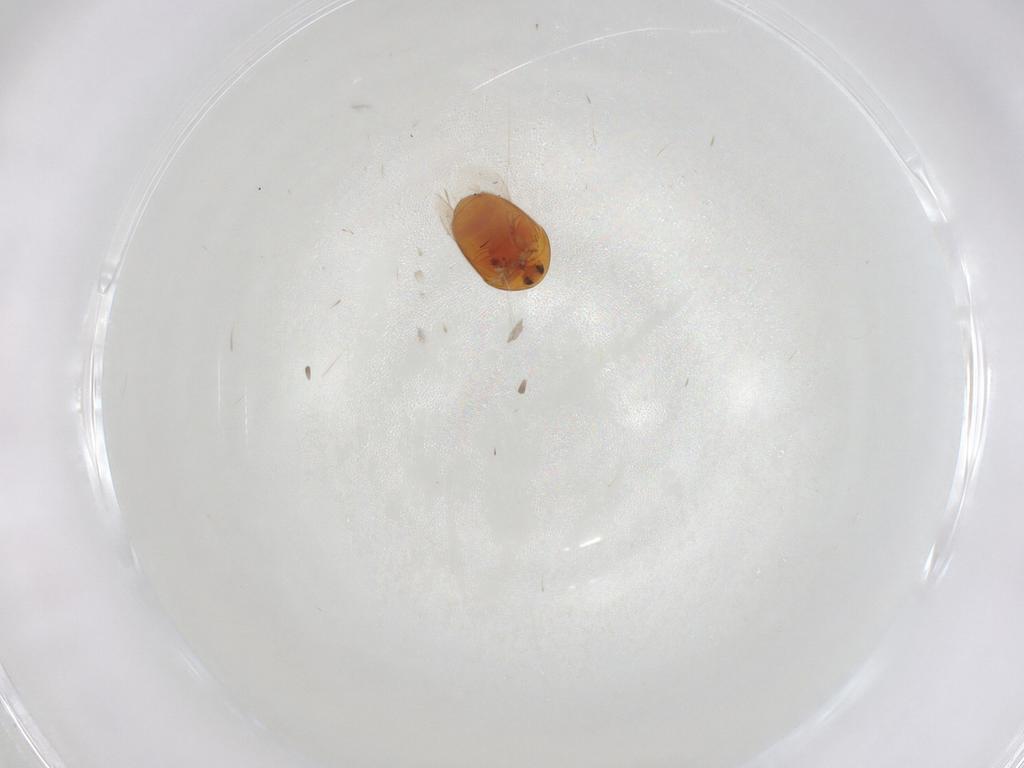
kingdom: Animalia
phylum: Arthropoda
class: Insecta
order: Coleoptera
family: Corylophidae
